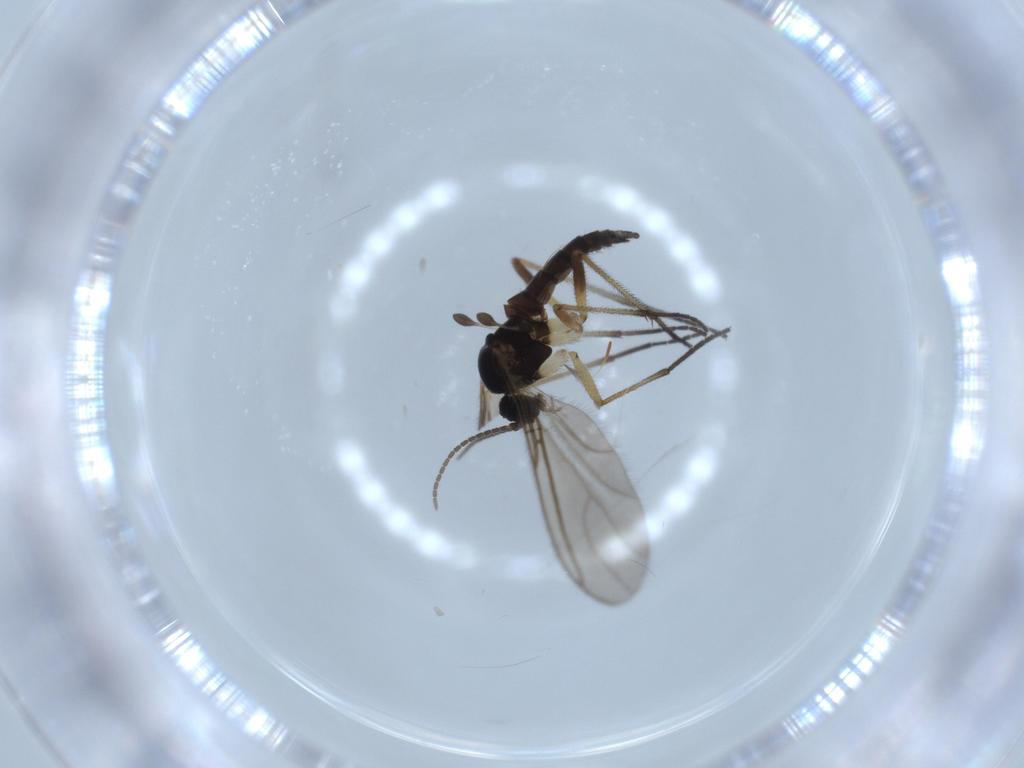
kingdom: Animalia
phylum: Arthropoda
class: Insecta
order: Diptera
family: Sciaridae
